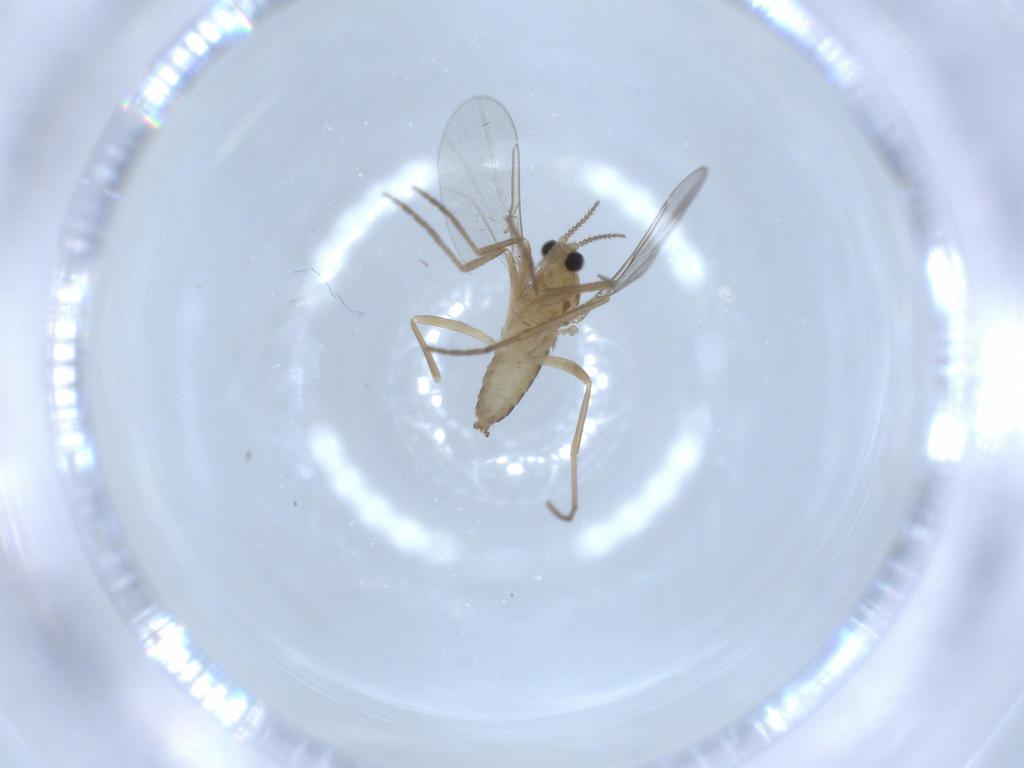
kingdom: Animalia
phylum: Arthropoda
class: Insecta
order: Diptera
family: Cecidomyiidae
